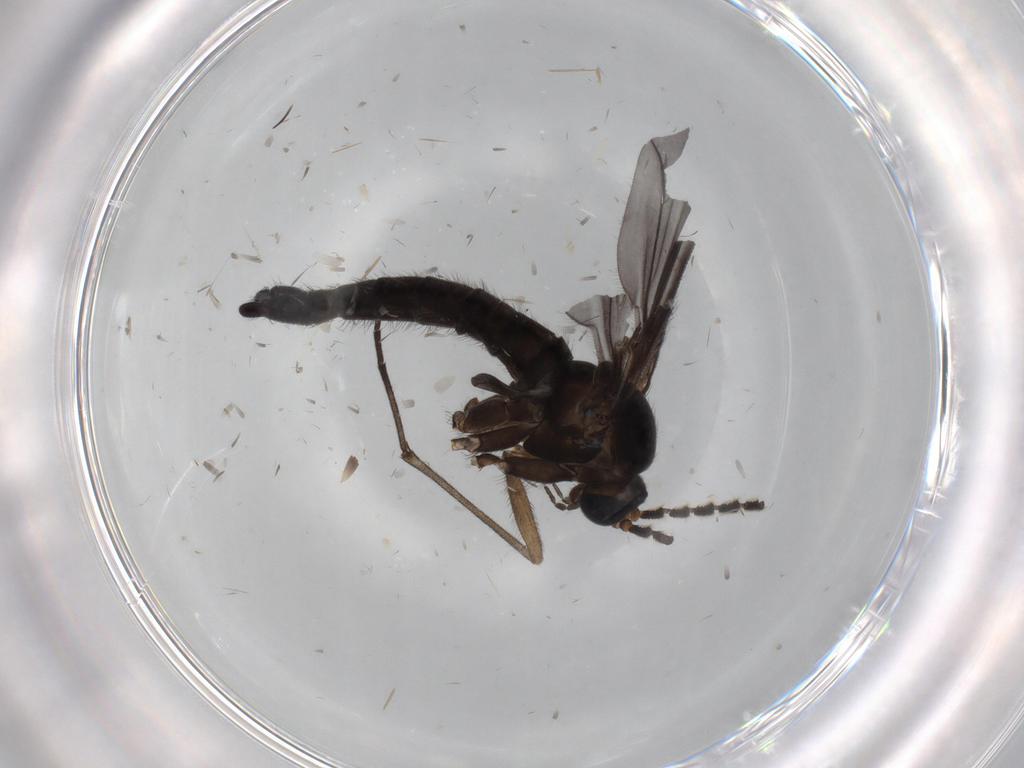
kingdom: Animalia
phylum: Arthropoda
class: Insecta
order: Diptera
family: Sciaridae
